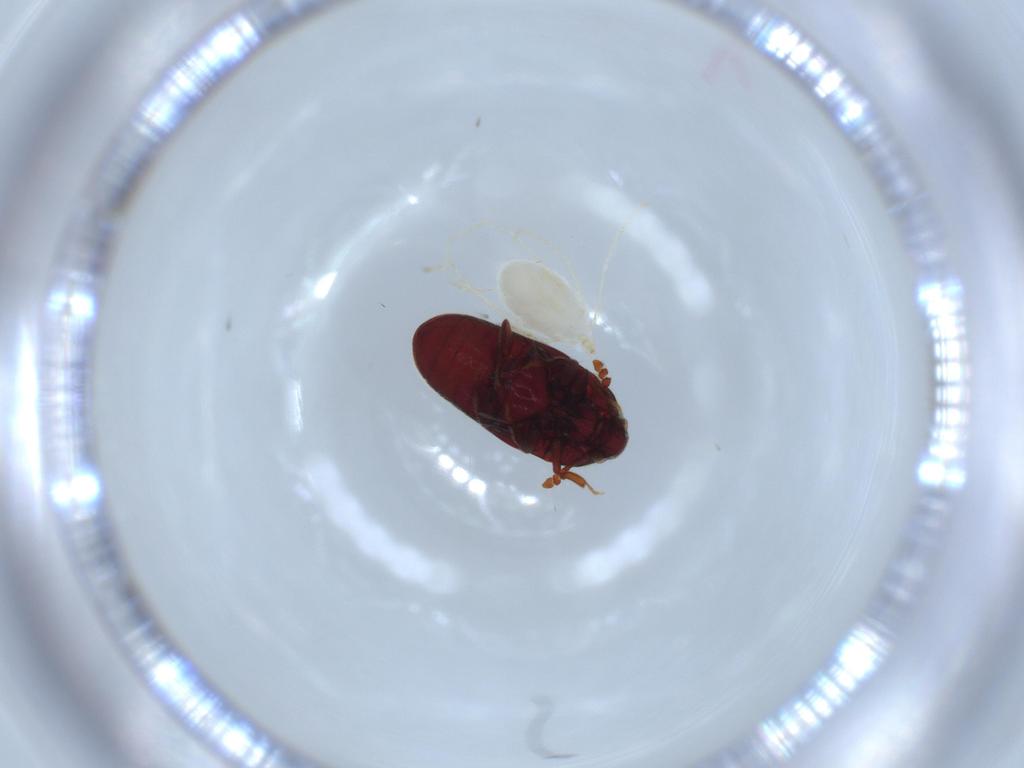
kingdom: Animalia
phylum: Arthropoda
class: Insecta
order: Coleoptera
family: Throscidae
